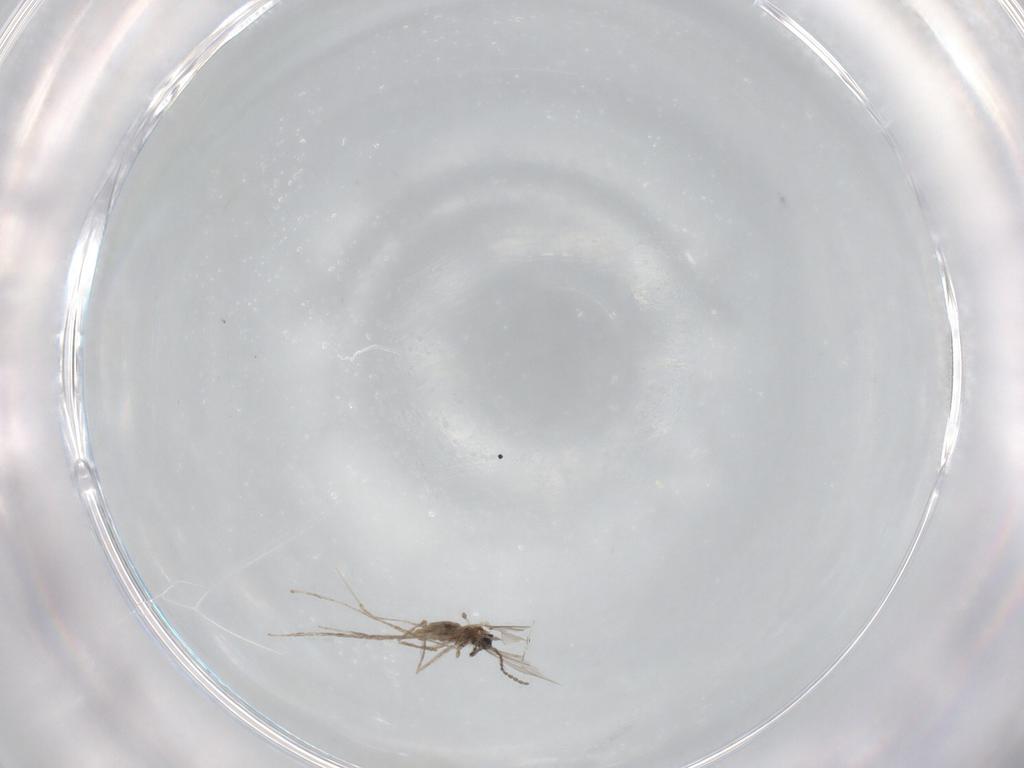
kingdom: Animalia
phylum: Arthropoda
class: Insecta
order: Diptera
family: Cecidomyiidae
